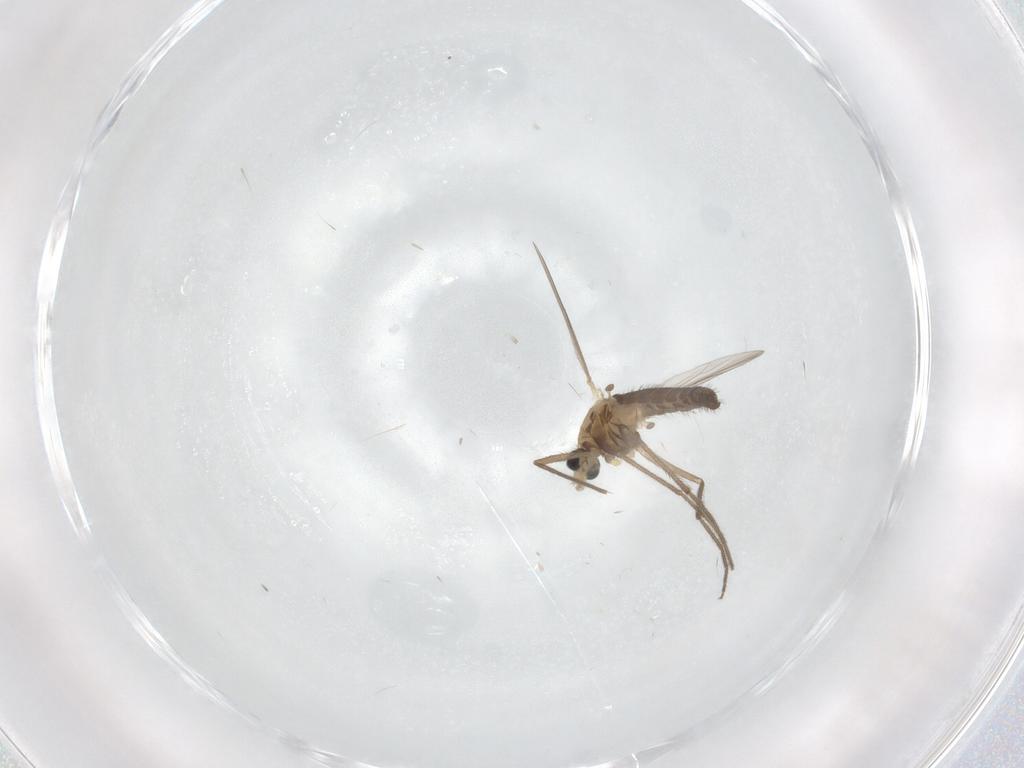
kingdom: Animalia
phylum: Arthropoda
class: Insecta
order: Diptera
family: Chironomidae
